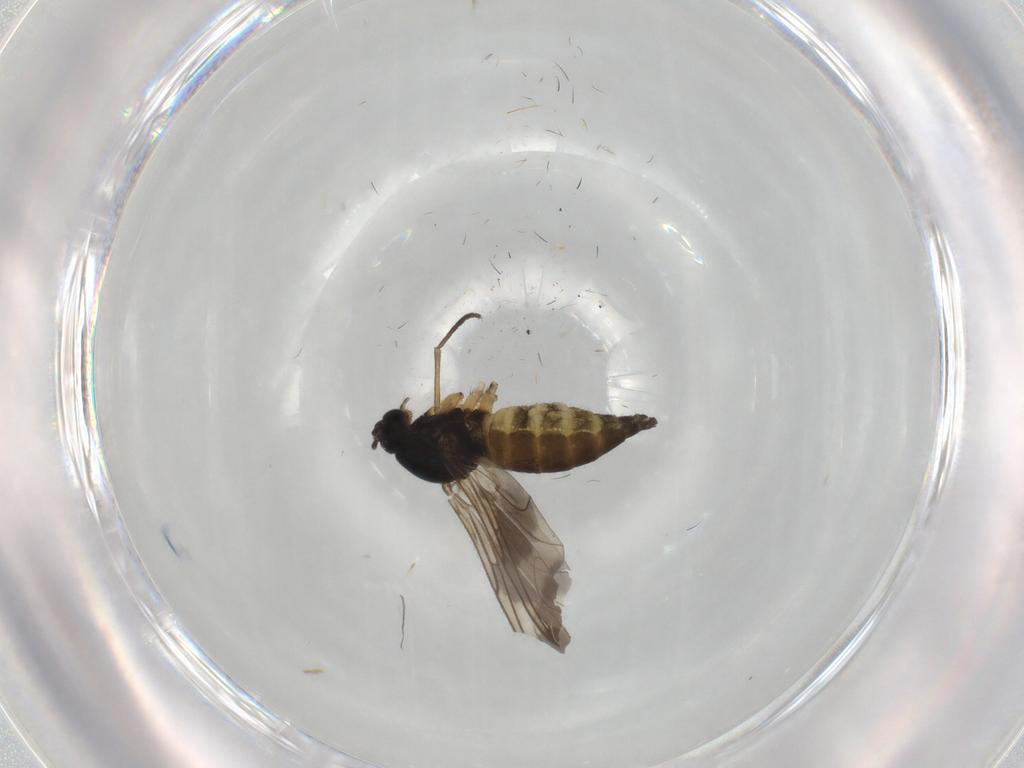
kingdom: Animalia
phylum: Arthropoda
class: Insecta
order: Diptera
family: Sciaridae
